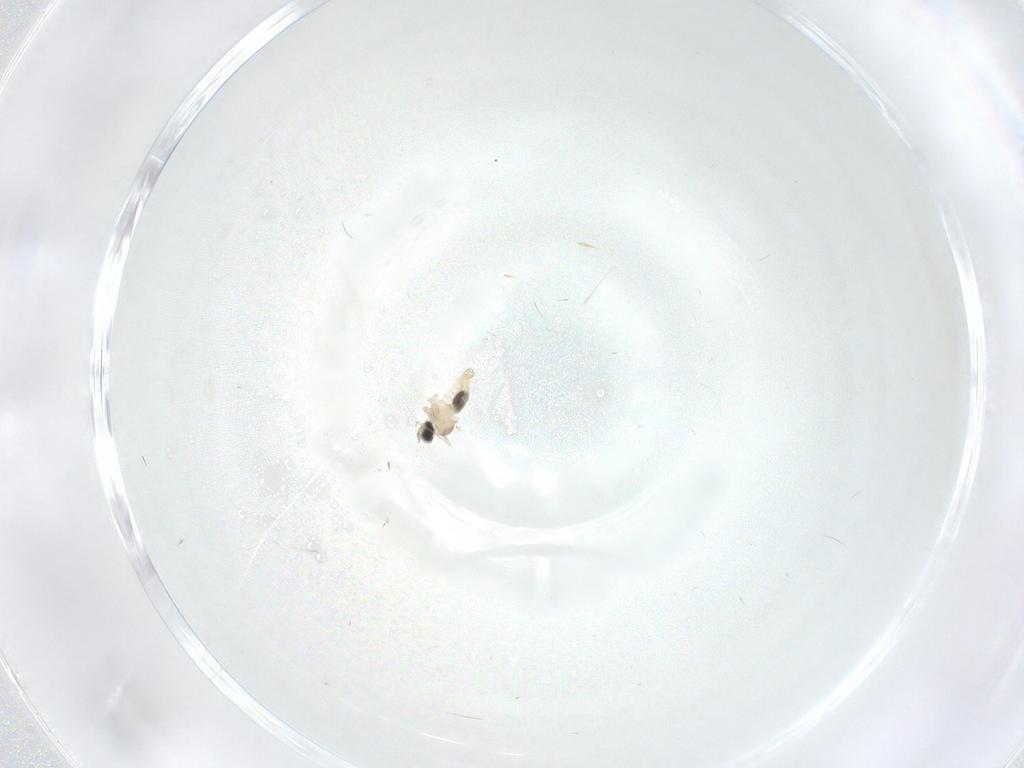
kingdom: Animalia
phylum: Arthropoda
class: Insecta
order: Diptera
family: Cecidomyiidae
